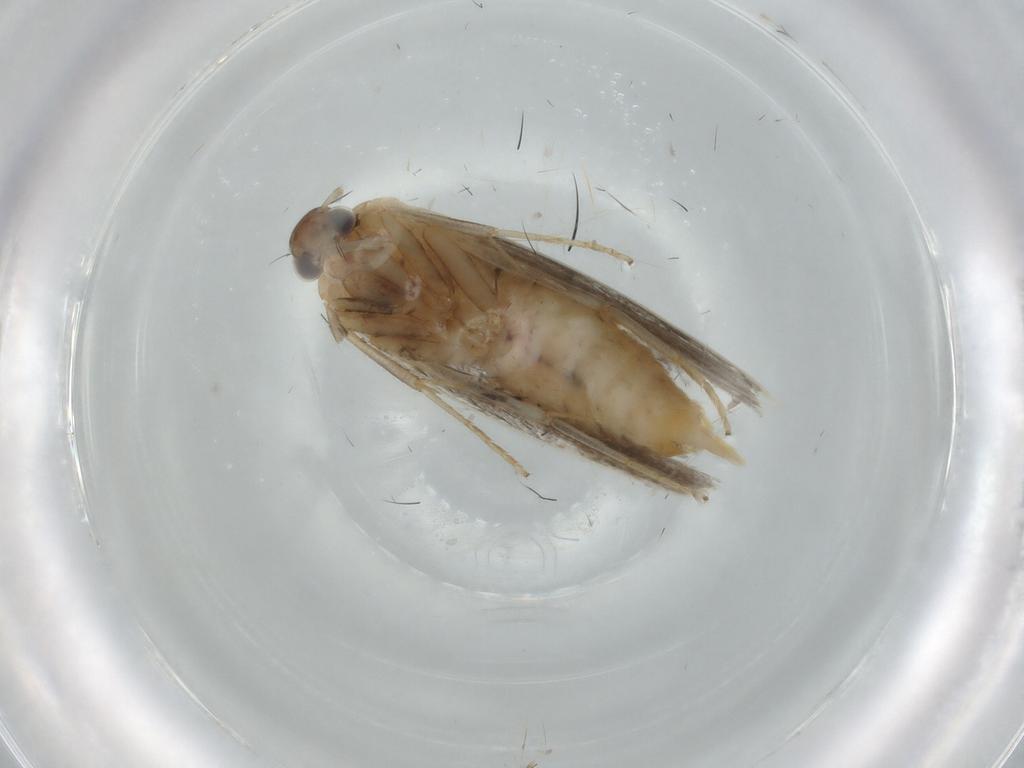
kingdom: Animalia
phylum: Arthropoda
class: Insecta
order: Lepidoptera
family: Gelechiidae
